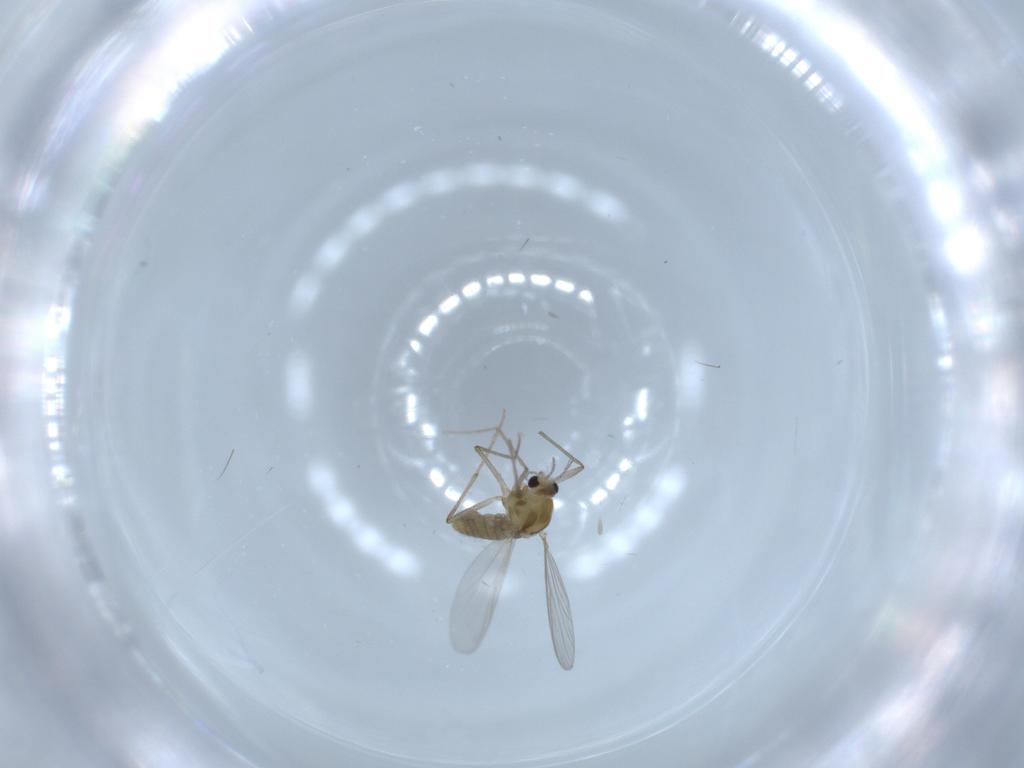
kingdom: Animalia
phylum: Arthropoda
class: Insecta
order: Diptera
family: Chironomidae
